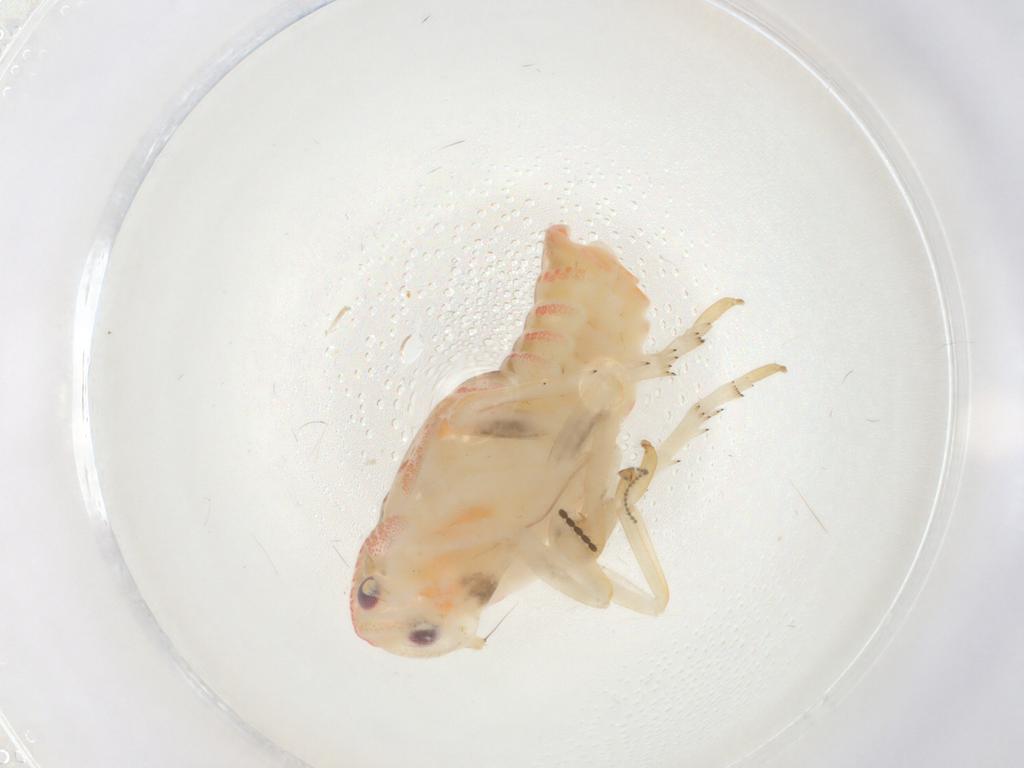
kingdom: Animalia
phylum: Arthropoda
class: Insecta
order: Hemiptera
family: Flatidae
